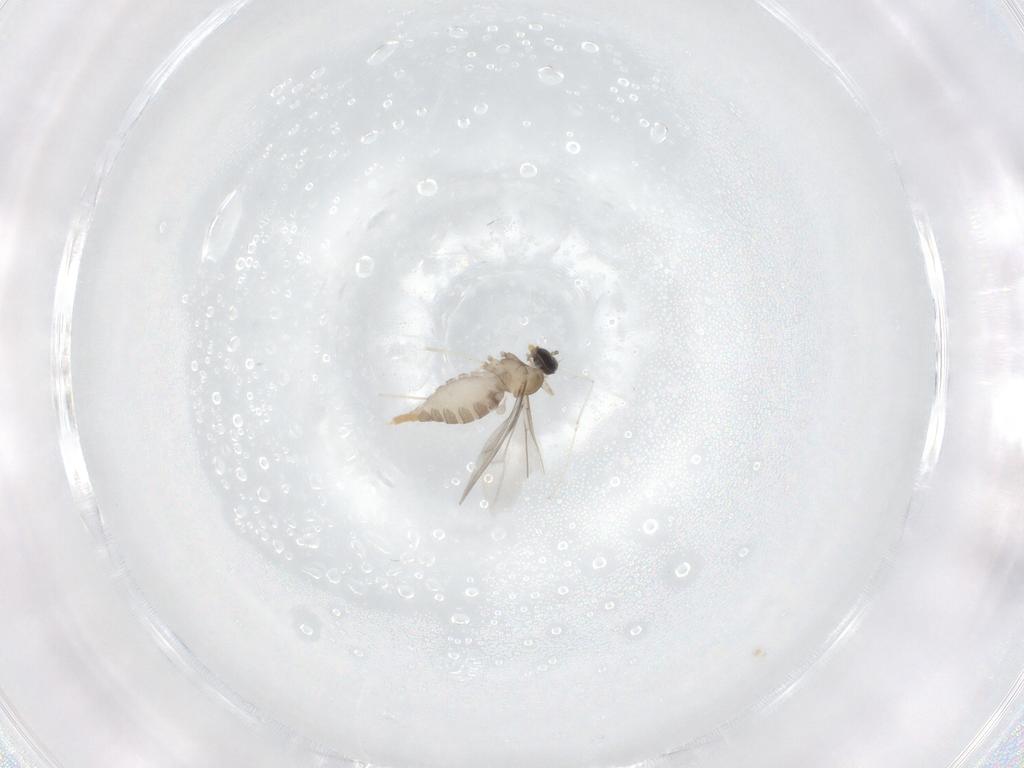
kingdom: Animalia
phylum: Arthropoda
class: Insecta
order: Diptera
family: Cecidomyiidae
